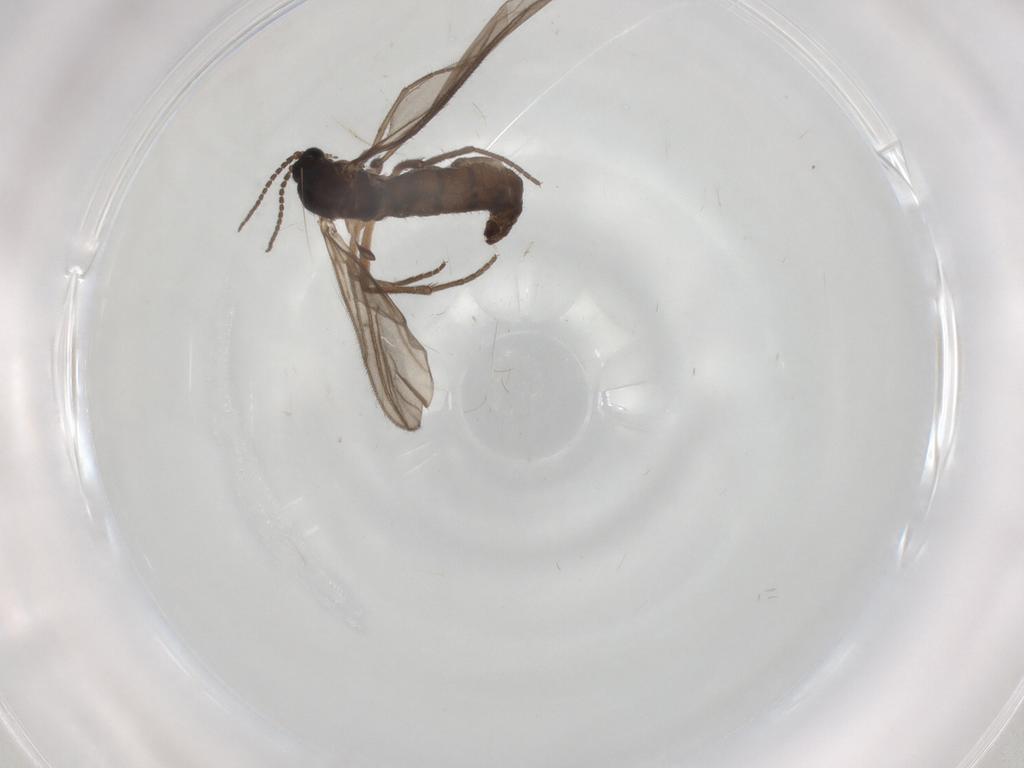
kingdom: Animalia
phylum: Arthropoda
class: Insecta
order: Diptera
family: Sciaridae
